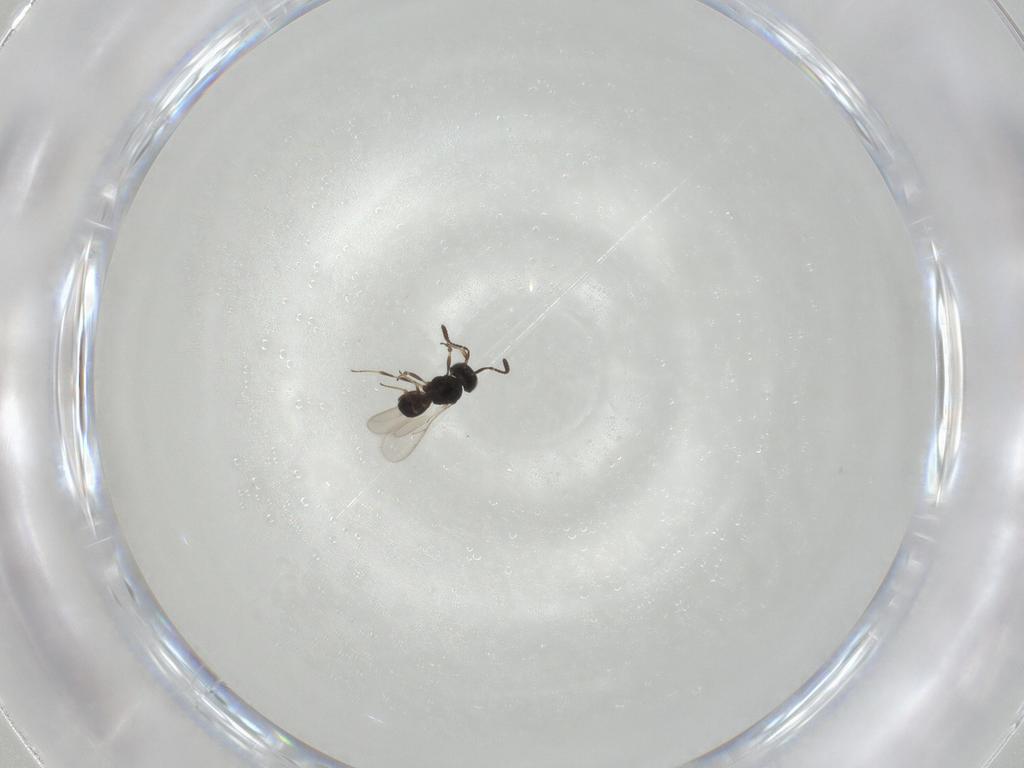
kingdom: Animalia
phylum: Arthropoda
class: Insecta
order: Hymenoptera
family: Scelionidae
